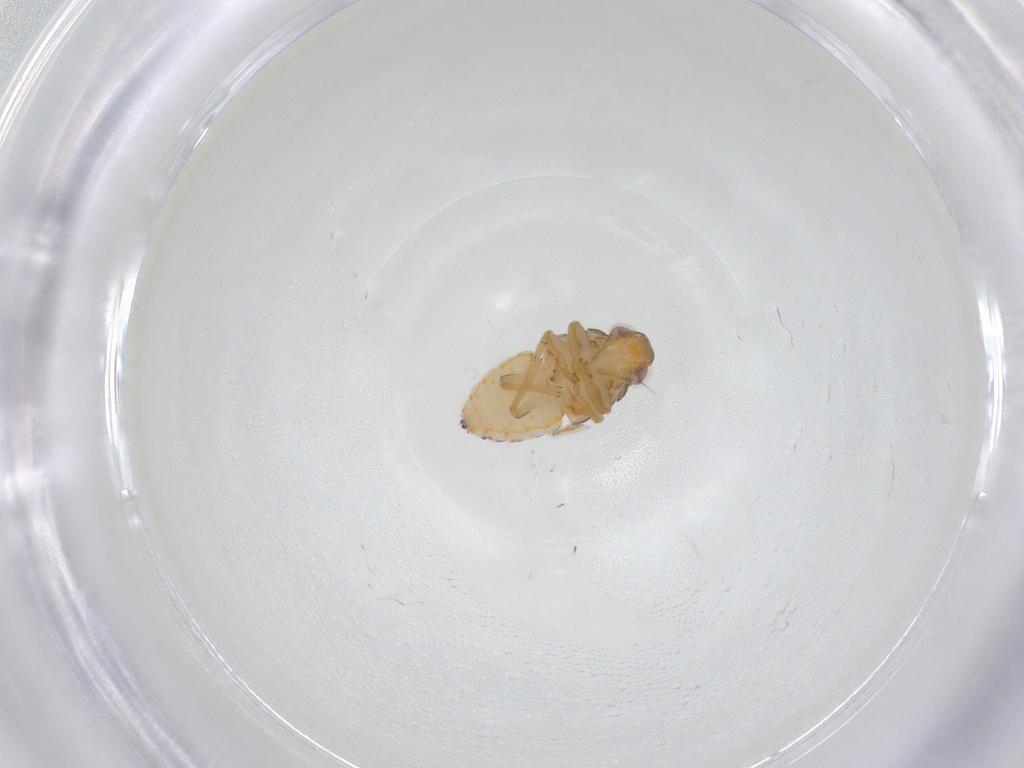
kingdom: Animalia
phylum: Arthropoda
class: Insecta
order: Hemiptera
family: Issidae
